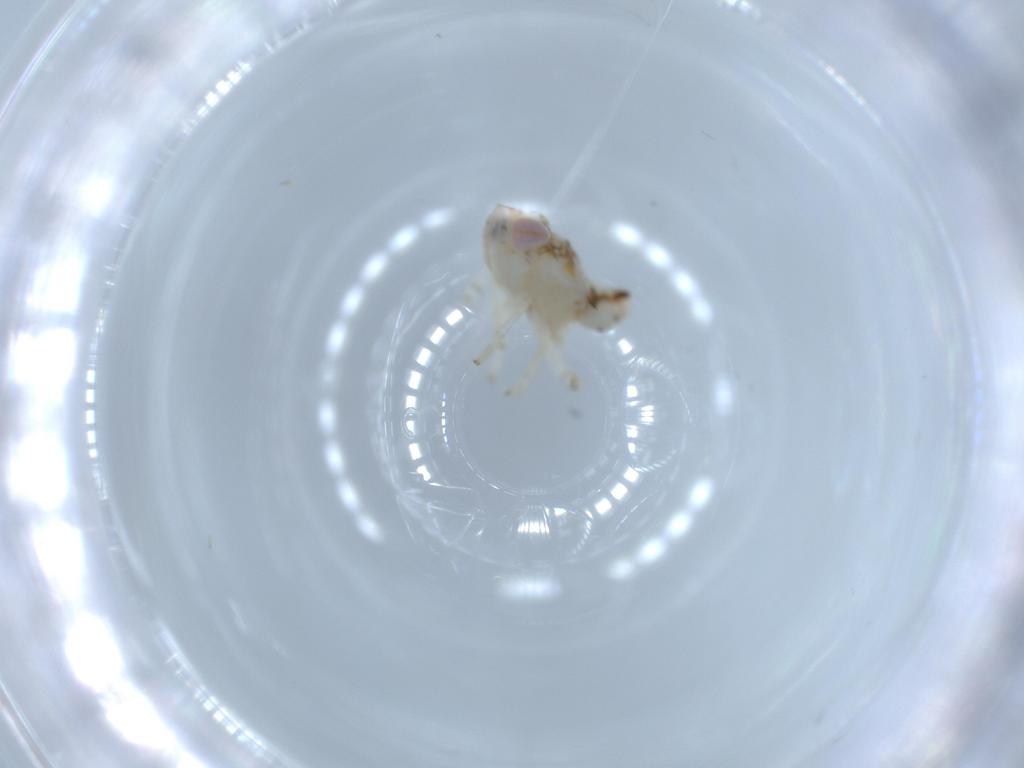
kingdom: Animalia
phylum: Arthropoda
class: Insecta
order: Hemiptera
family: Nogodinidae
